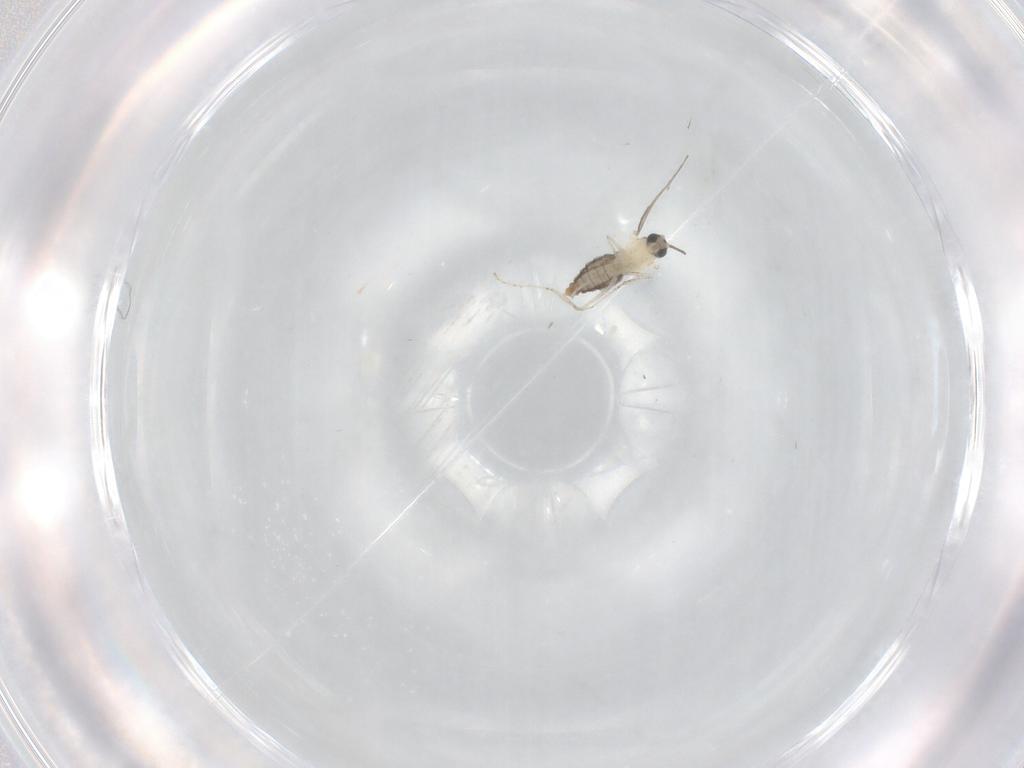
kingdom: Animalia
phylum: Arthropoda
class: Insecta
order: Diptera
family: Cecidomyiidae
